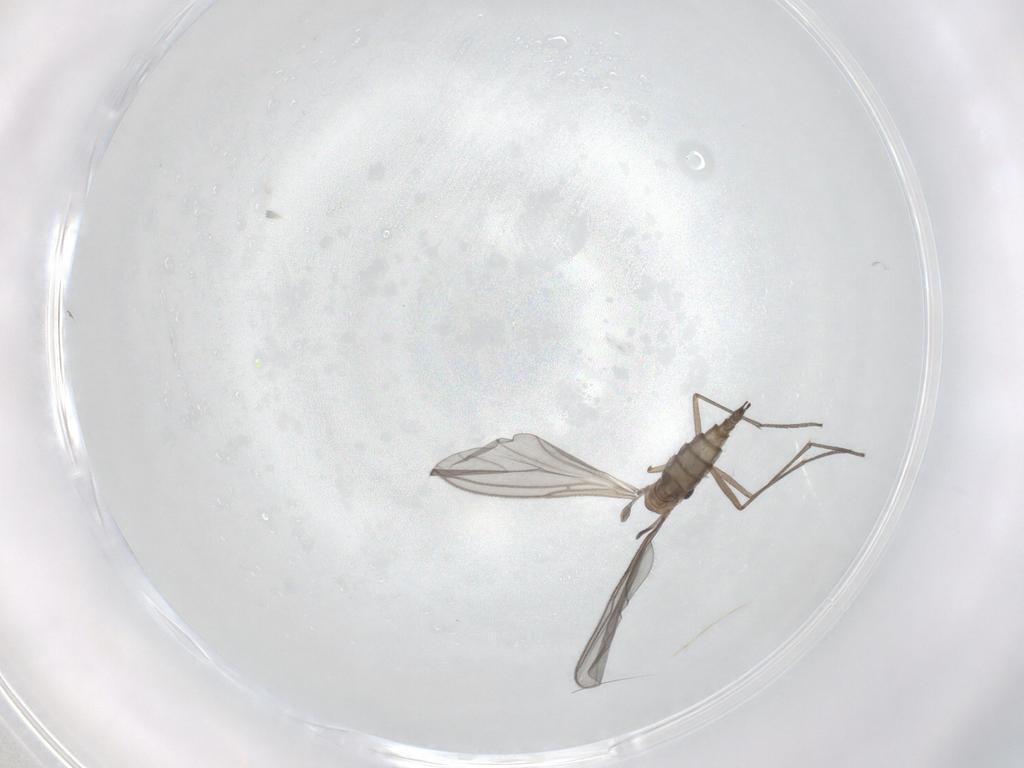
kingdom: Animalia
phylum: Arthropoda
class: Insecta
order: Diptera
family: Sciaridae
